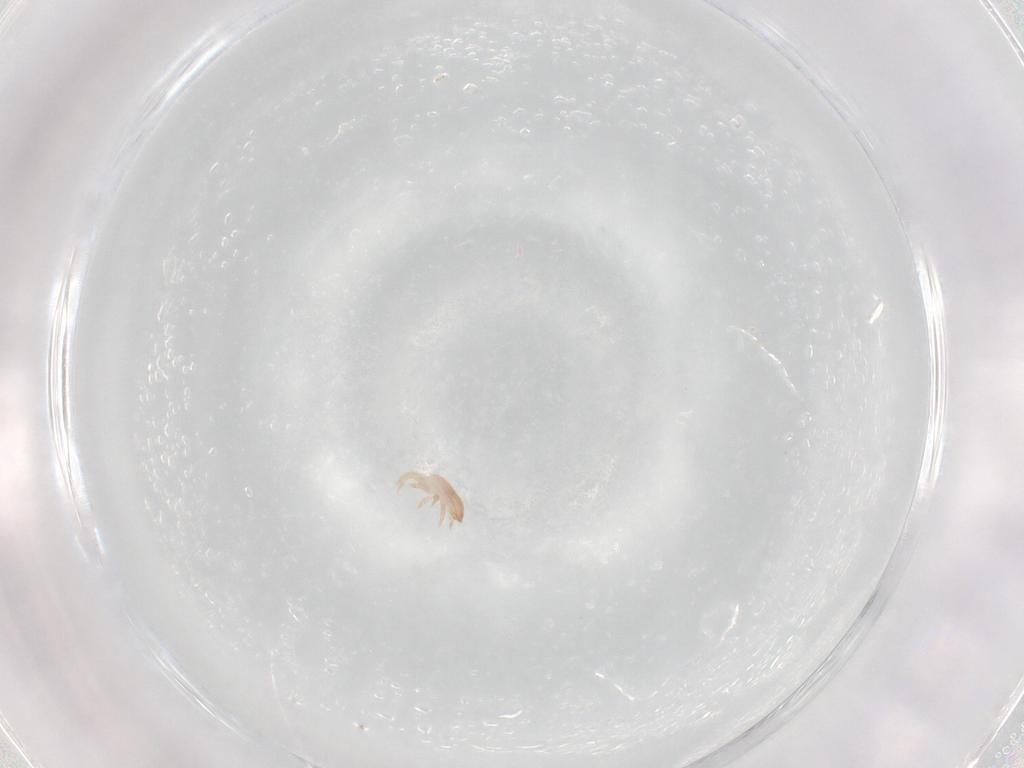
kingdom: Animalia
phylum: Arthropoda
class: Arachnida
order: Mesostigmata
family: Zerconidae
